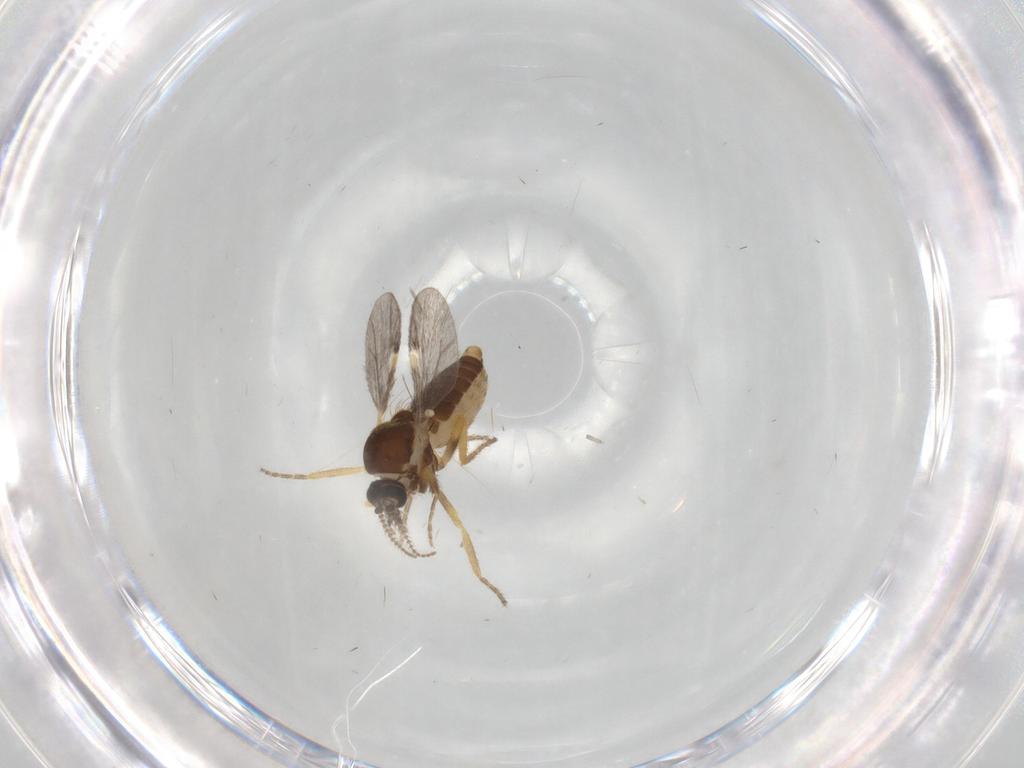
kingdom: Animalia
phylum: Arthropoda
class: Insecta
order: Diptera
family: Ceratopogonidae
